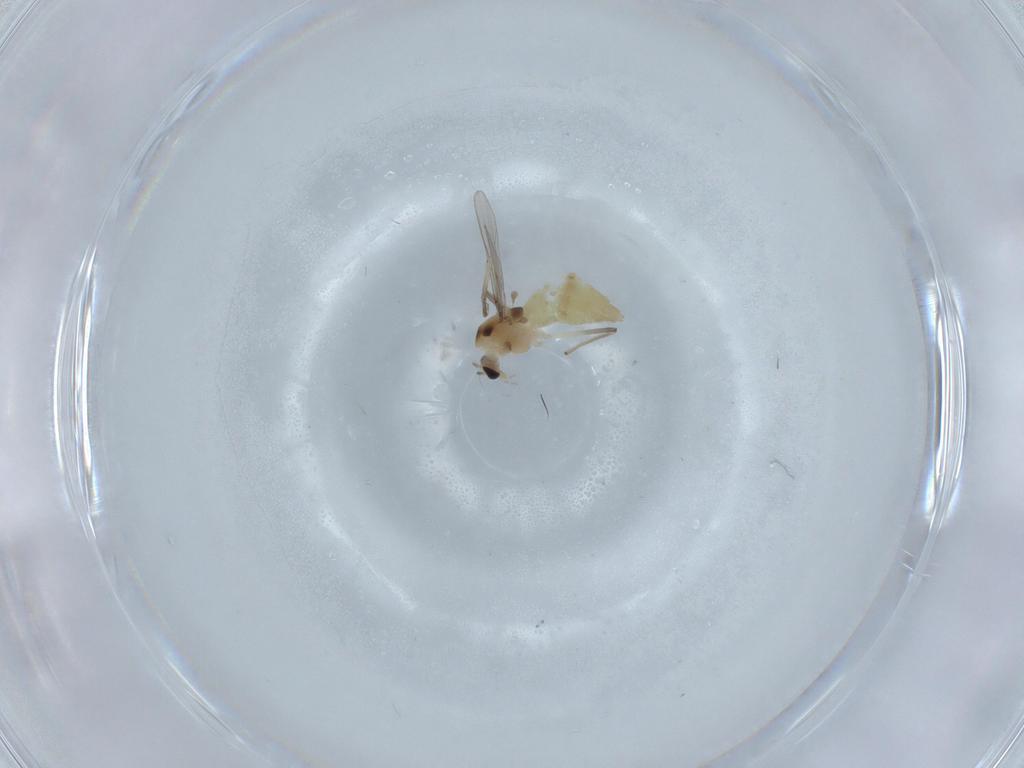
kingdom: Animalia
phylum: Arthropoda
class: Insecta
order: Diptera
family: Chironomidae
